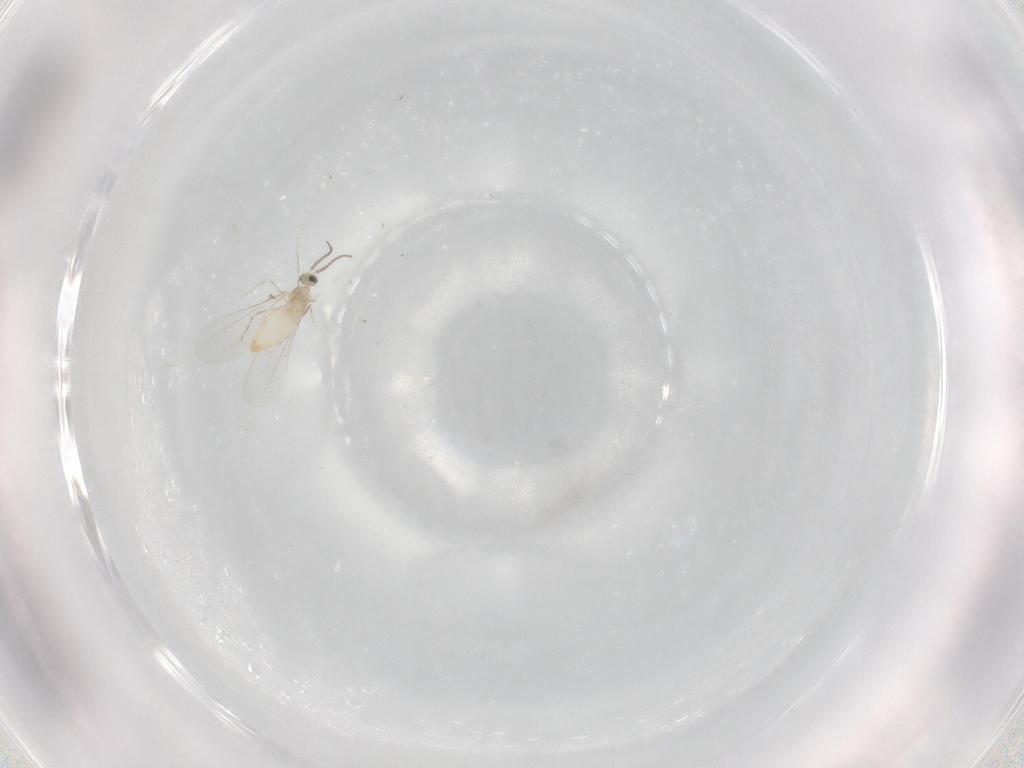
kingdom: Animalia
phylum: Arthropoda
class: Insecta
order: Diptera
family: Cecidomyiidae
